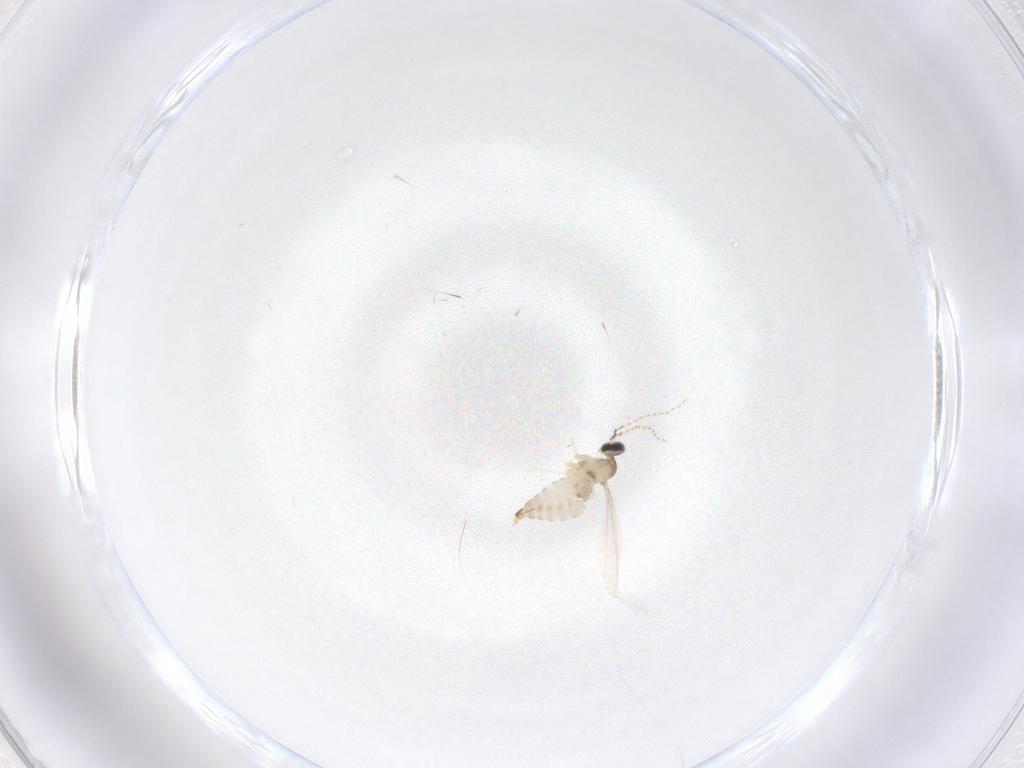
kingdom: Animalia
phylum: Arthropoda
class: Insecta
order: Diptera
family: Cecidomyiidae
